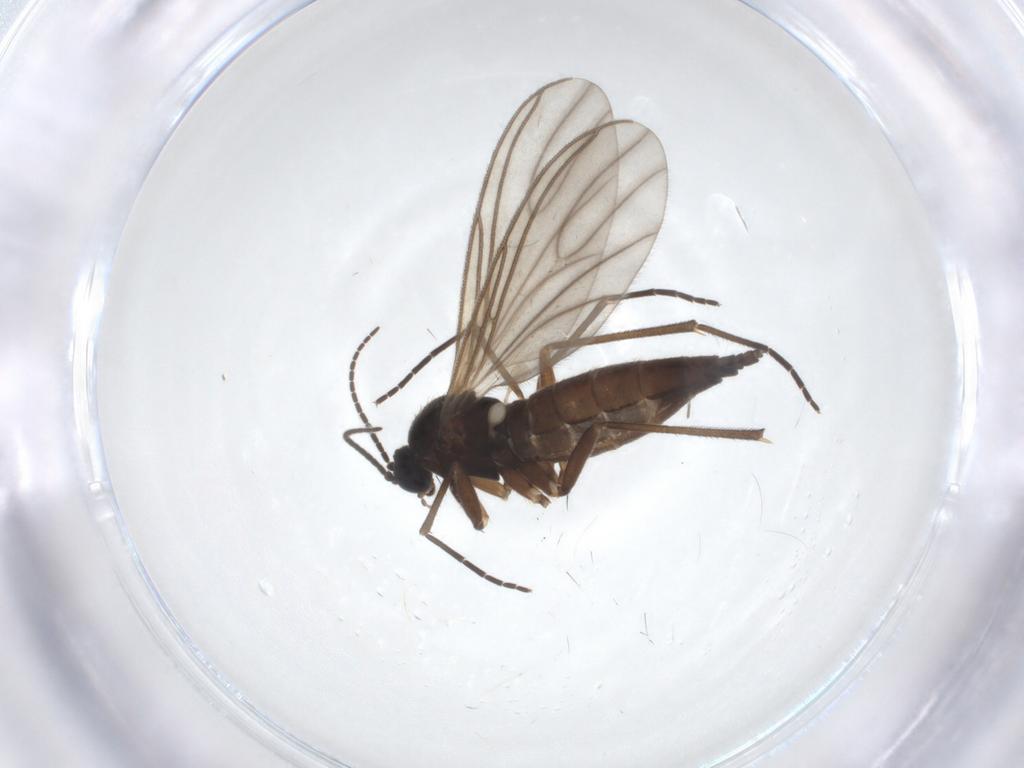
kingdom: Animalia
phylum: Arthropoda
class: Insecta
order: Diptera
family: Sciaridae
